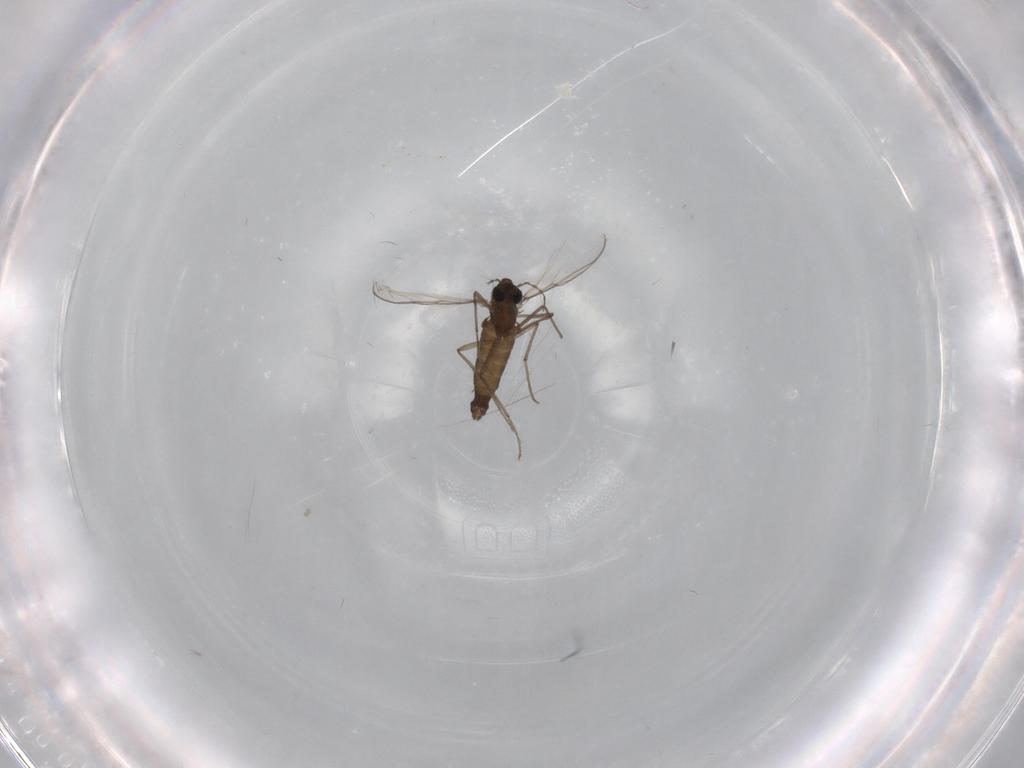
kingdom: Animalia
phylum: Arthropoda
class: Insecta
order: Diptera
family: Chironomidae
